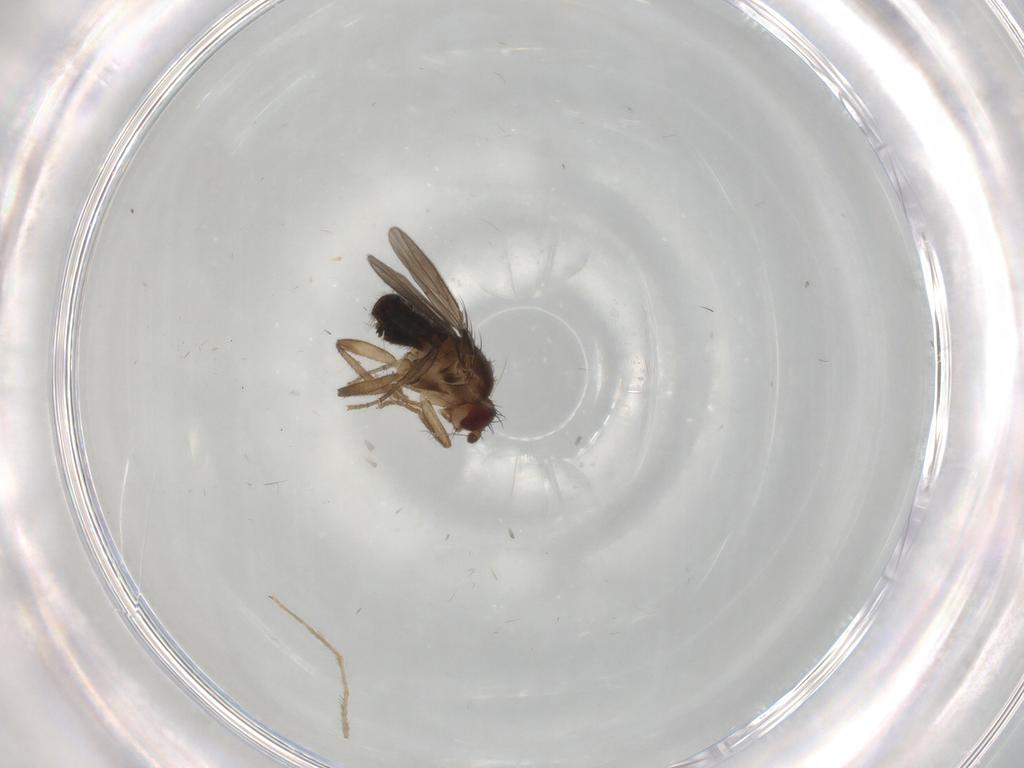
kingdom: Animalia
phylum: Arthropoda
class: Insecta
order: Diptera
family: Sphaeroceridae
